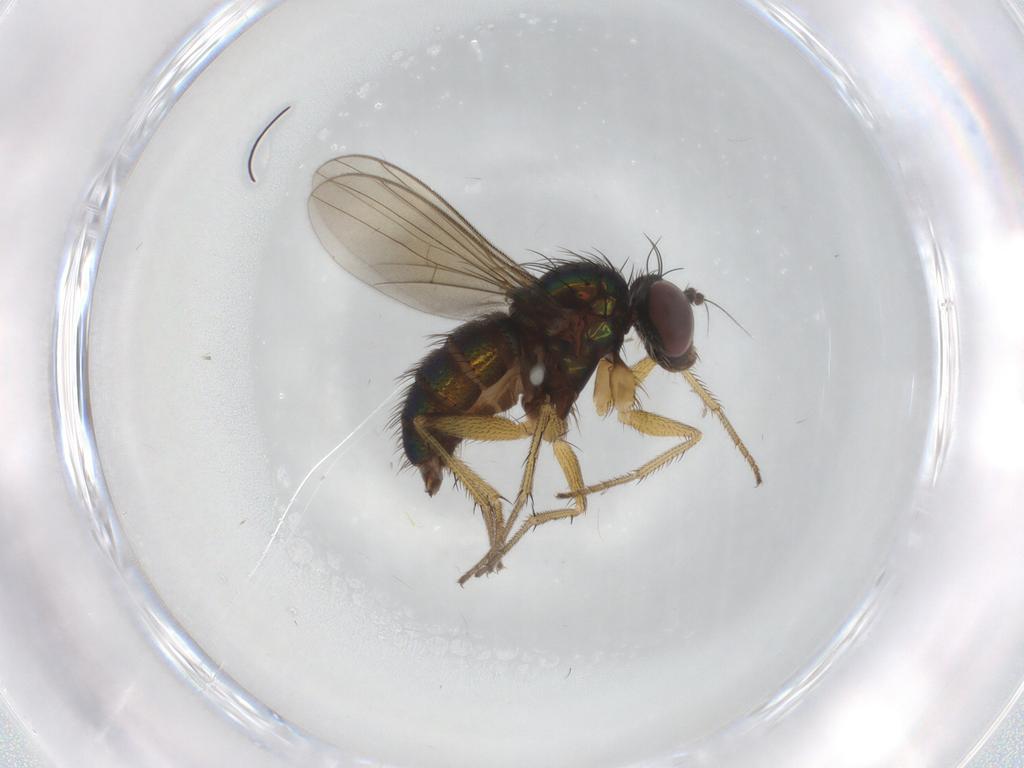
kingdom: Animalia
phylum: Arthropoda
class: Insecta
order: Diptera
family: Dolichopodidae
